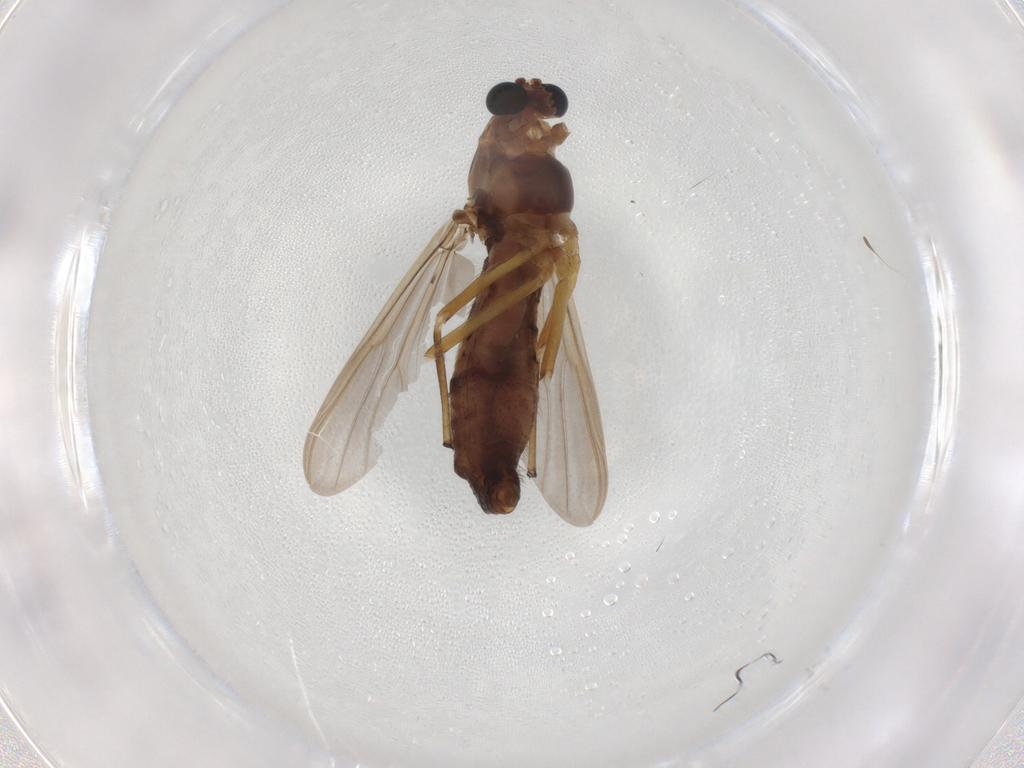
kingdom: Animalia
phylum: Arthropoda
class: Insecta
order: Diptera
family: Chironomidae
